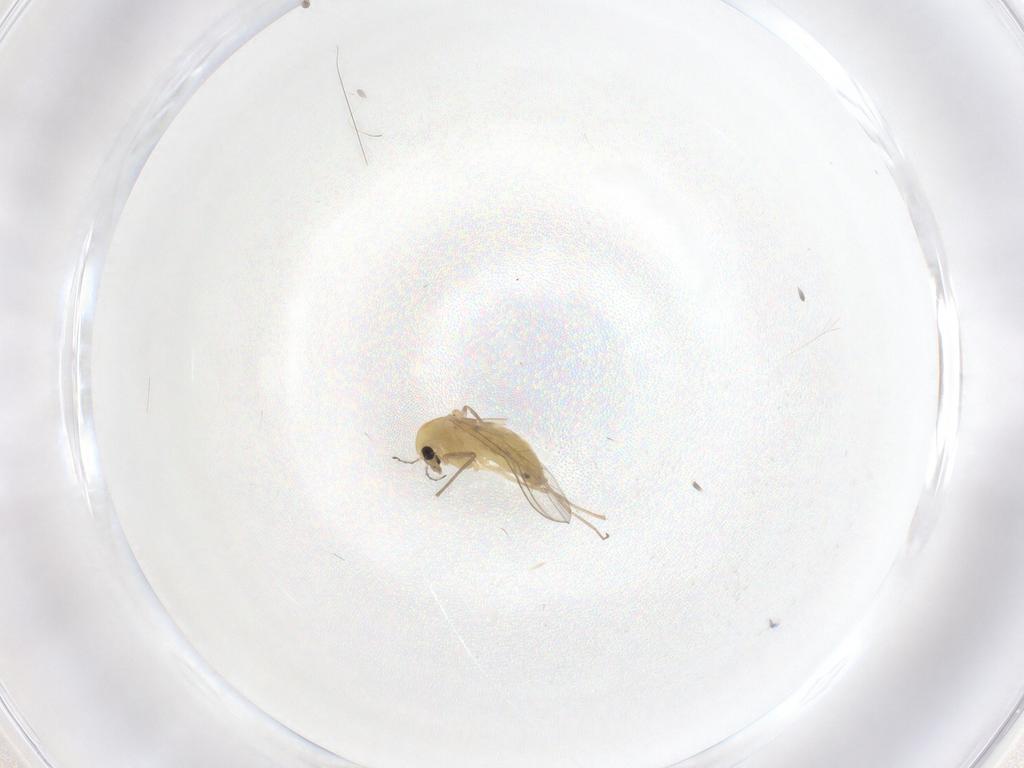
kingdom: Animalia
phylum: Arthropoda
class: Insecta
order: Diptera
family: Chironomidae
